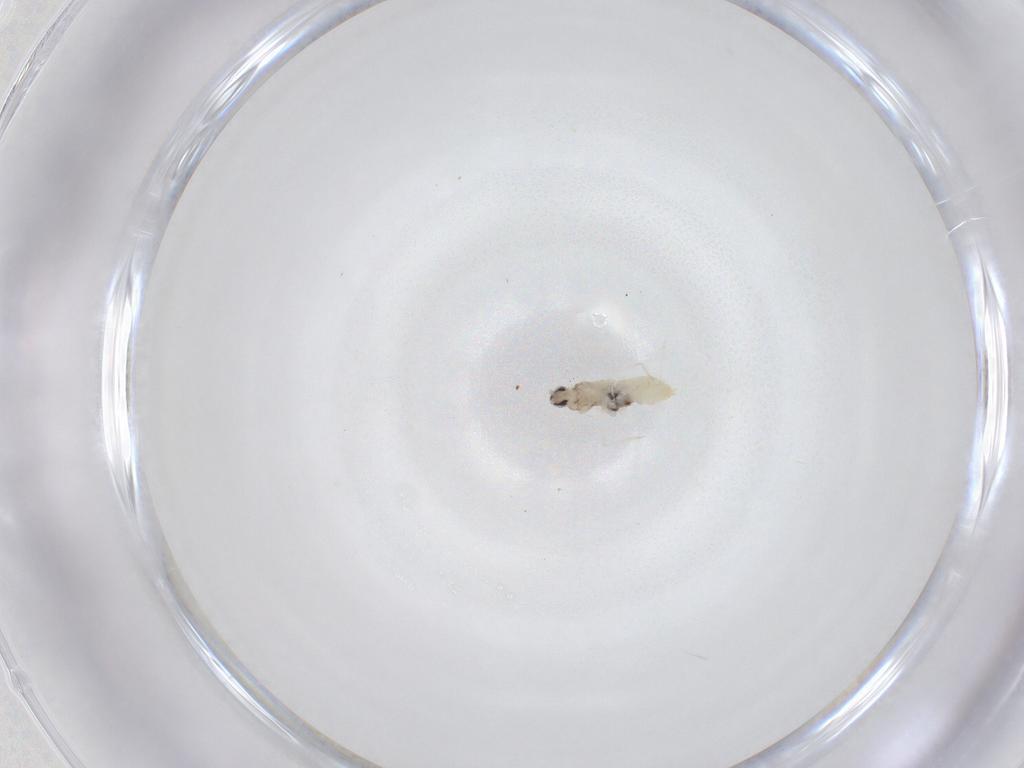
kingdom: Animalia
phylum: Arthropoda
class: Insecta
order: Diptera
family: Cecidomyiidae
